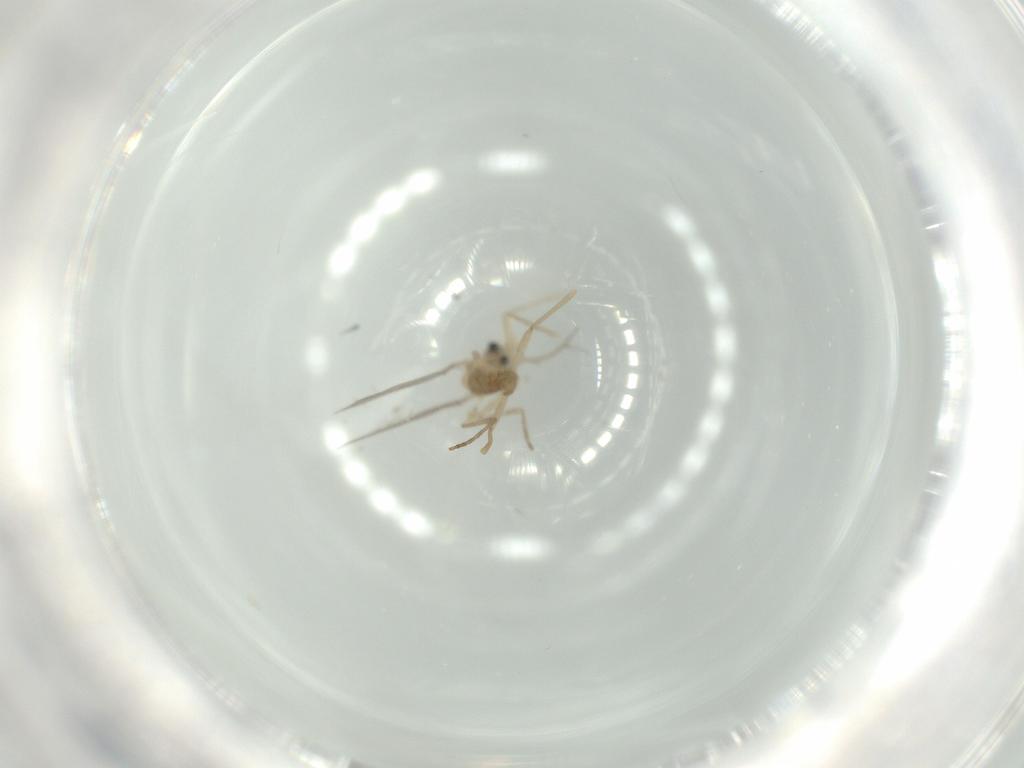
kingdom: Animalia
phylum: Arthropoda
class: Insecta
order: Diptera
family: Cecidomyiidae
